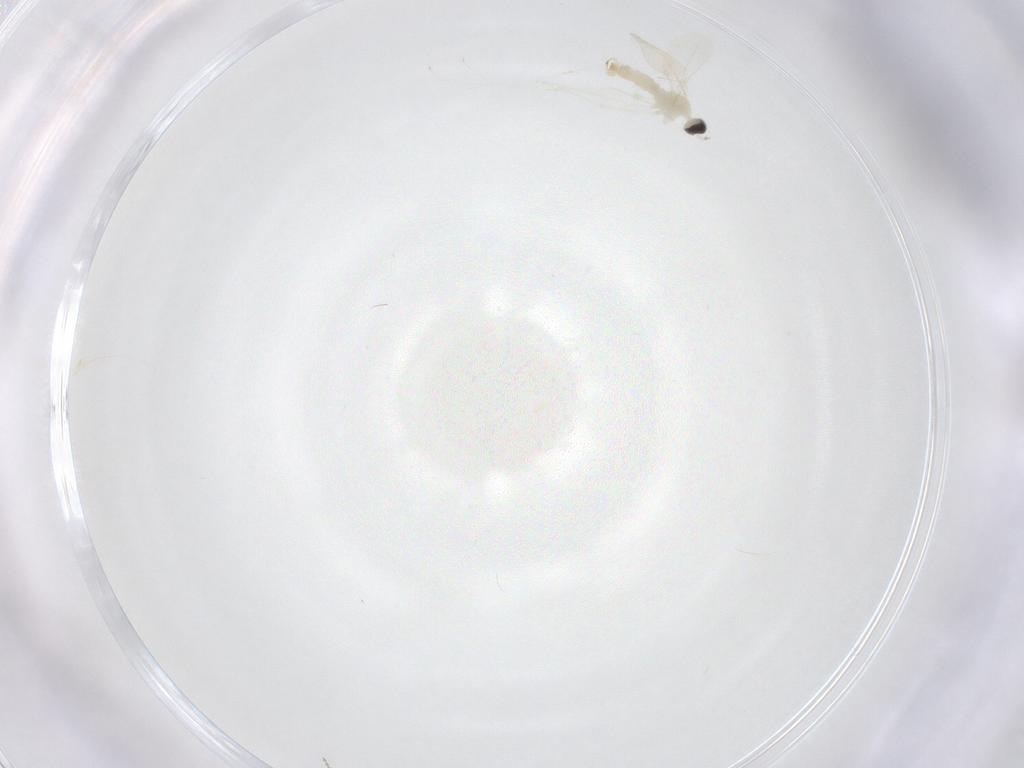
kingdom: Animalia
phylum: Arthropoda
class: Insecta
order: Diptera
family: Cecidomyiidae
